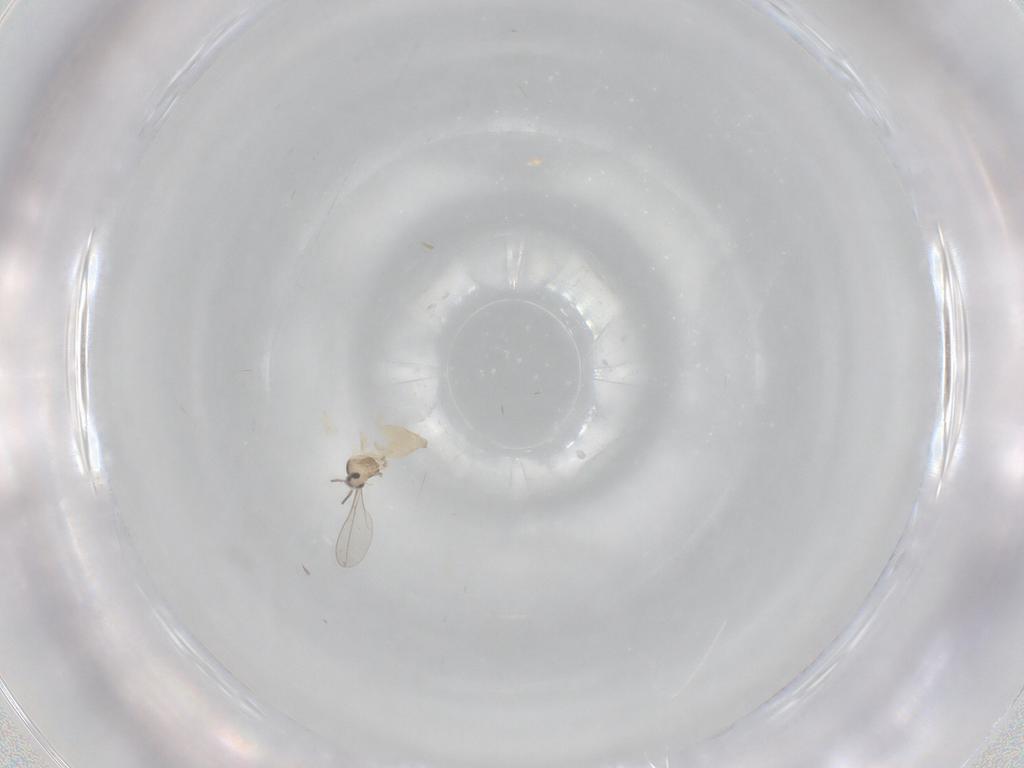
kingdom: Animalia
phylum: Arthropoda
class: Insecta
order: Diptera
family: Cecidomyiidae
